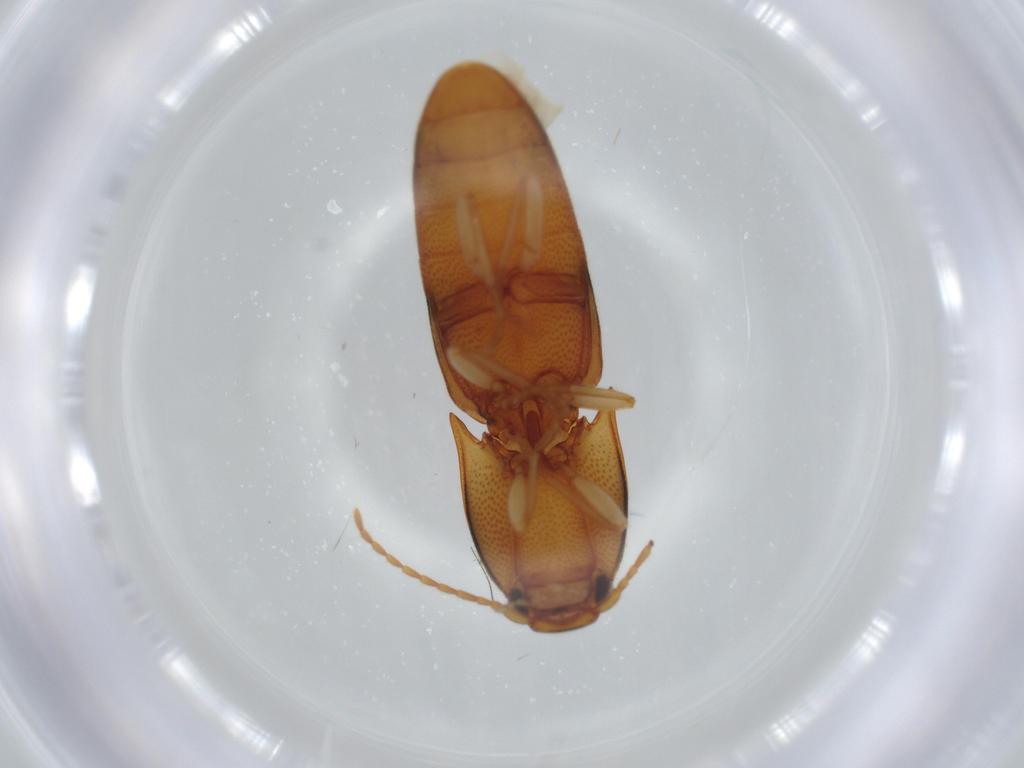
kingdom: Animalia
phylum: Arthropoda
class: Insecta
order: Coleoptera
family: Elateridae
